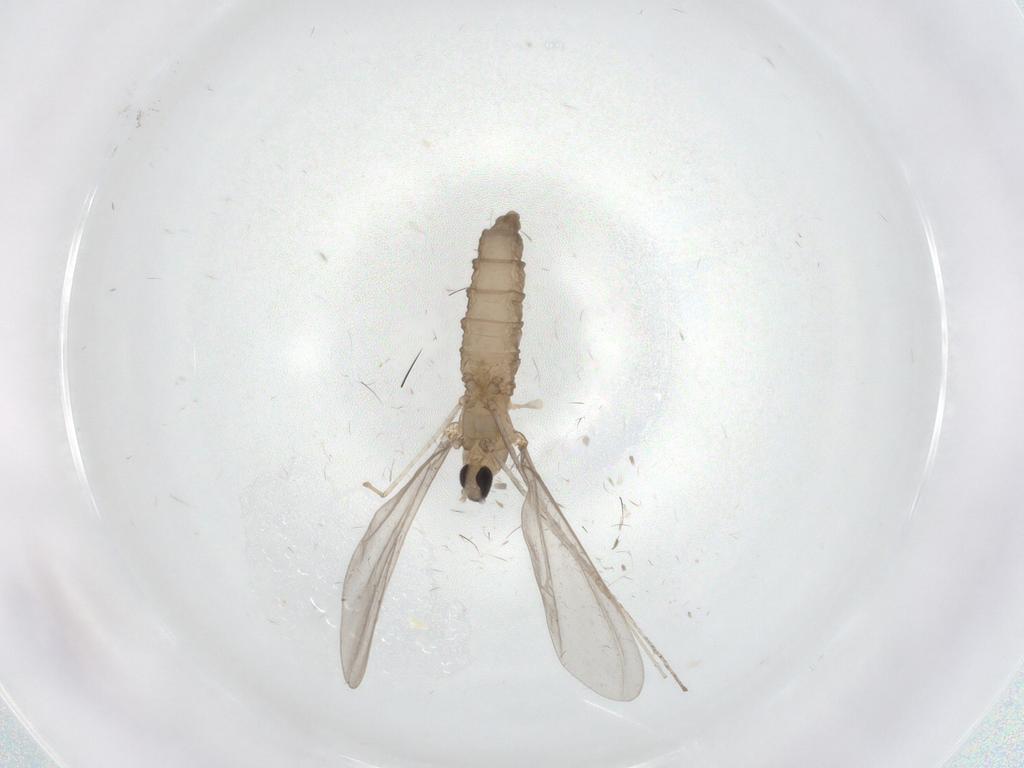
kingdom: Animalia
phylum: Arthropoda
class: Insecta
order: Diptera
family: Cecidomyiidae
